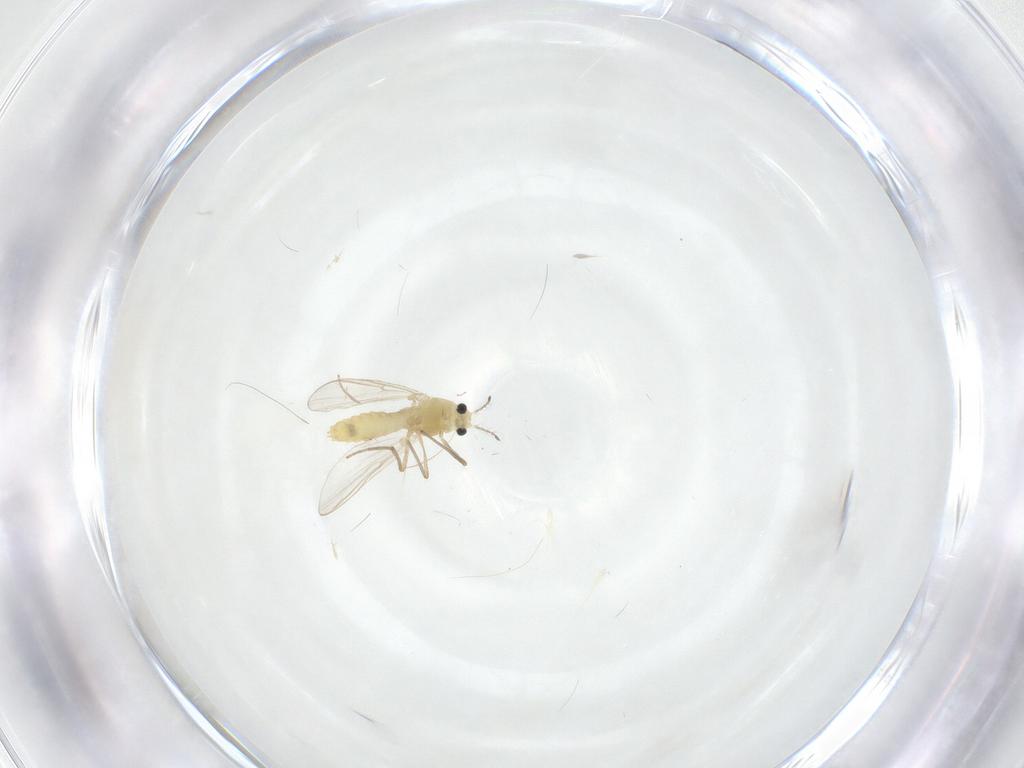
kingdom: Animalia
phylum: Arthropoda
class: Insecta
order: Diptera
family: Chironomidae
